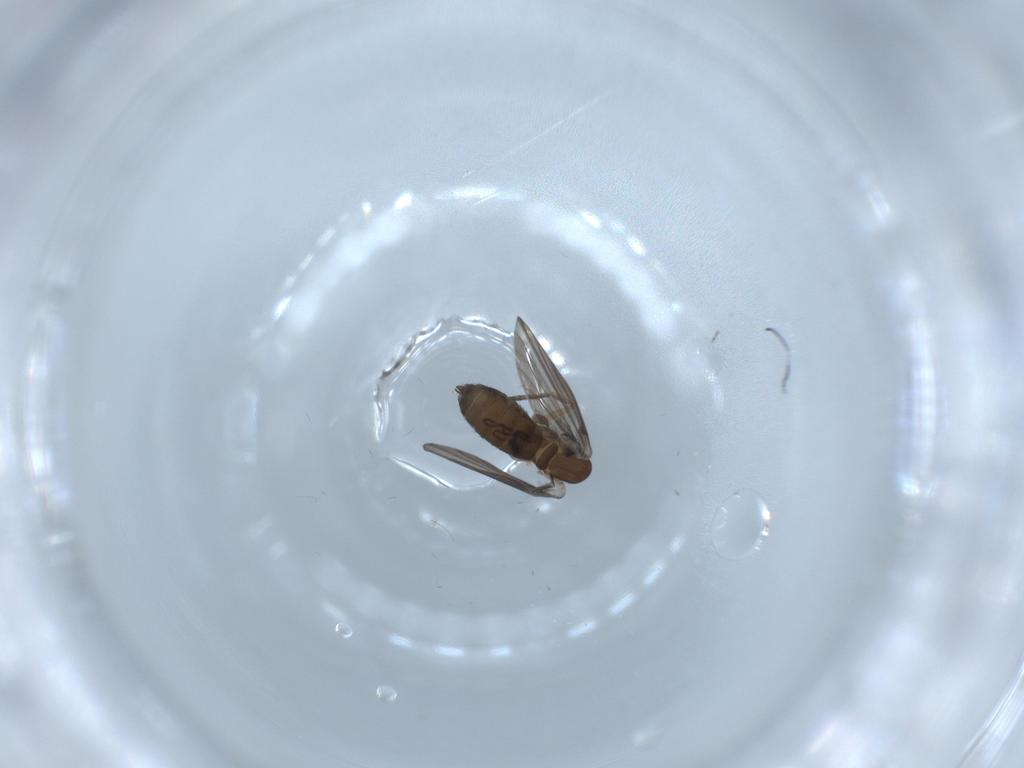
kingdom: Animalia
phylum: Arthropoda
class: Insecta
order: Diptera
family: Psychodidae
